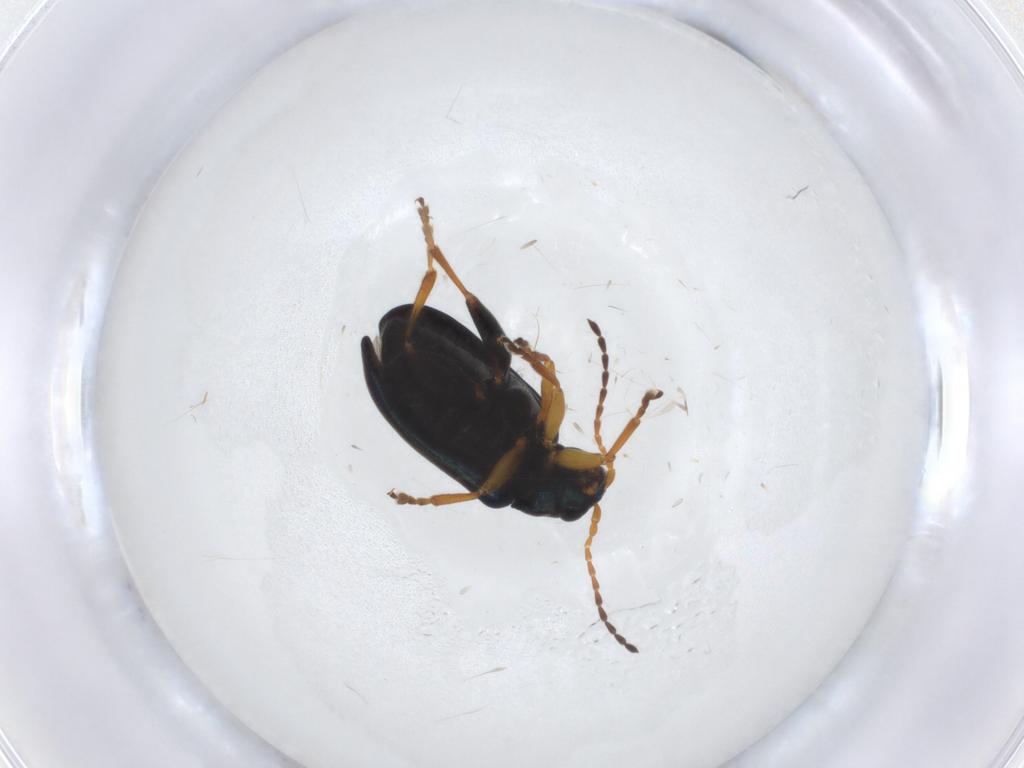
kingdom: Animalia
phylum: Arthropoda
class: Insecta
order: Coleoptera
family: Chrysomelidae
